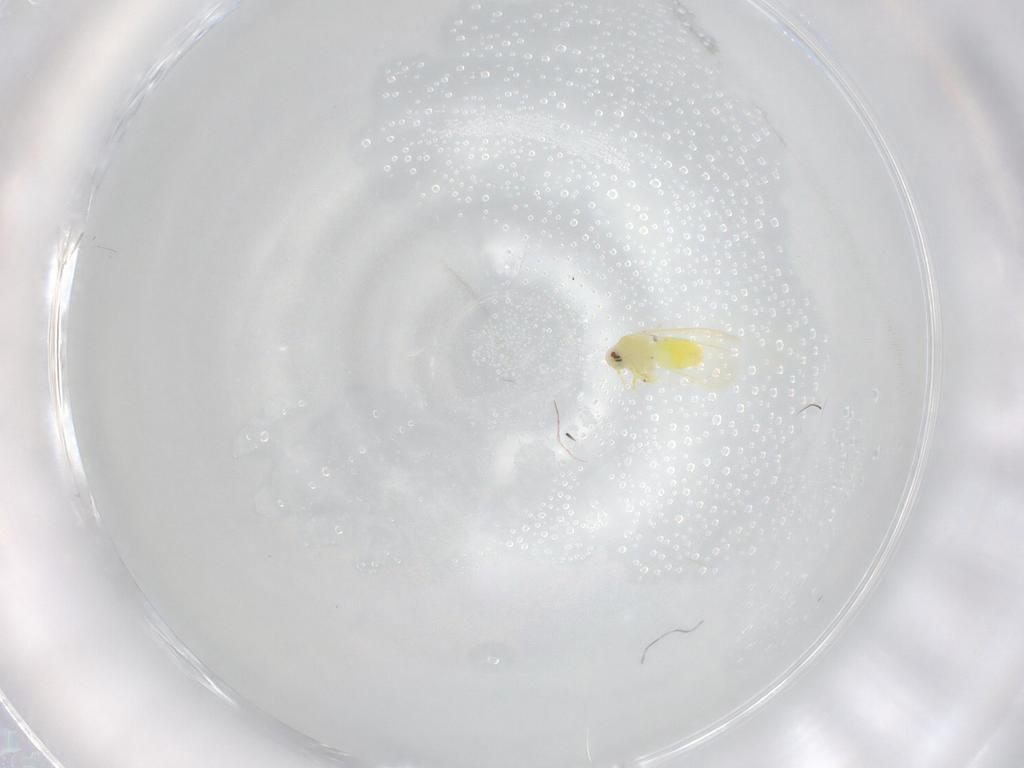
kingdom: Animalia
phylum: Arthropoda
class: Insecta
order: Hemiptera
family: Aleyrodidae
